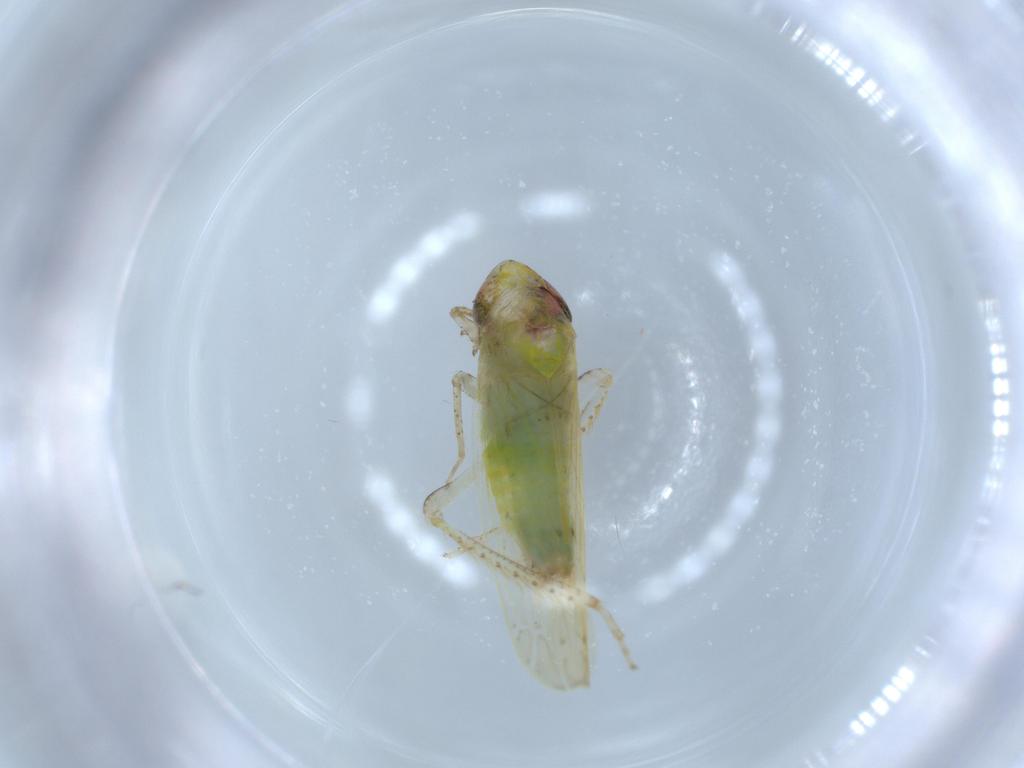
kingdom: Animalia
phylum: Arthropoda
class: Insecta
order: Hemiptera
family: Cicadellidae
